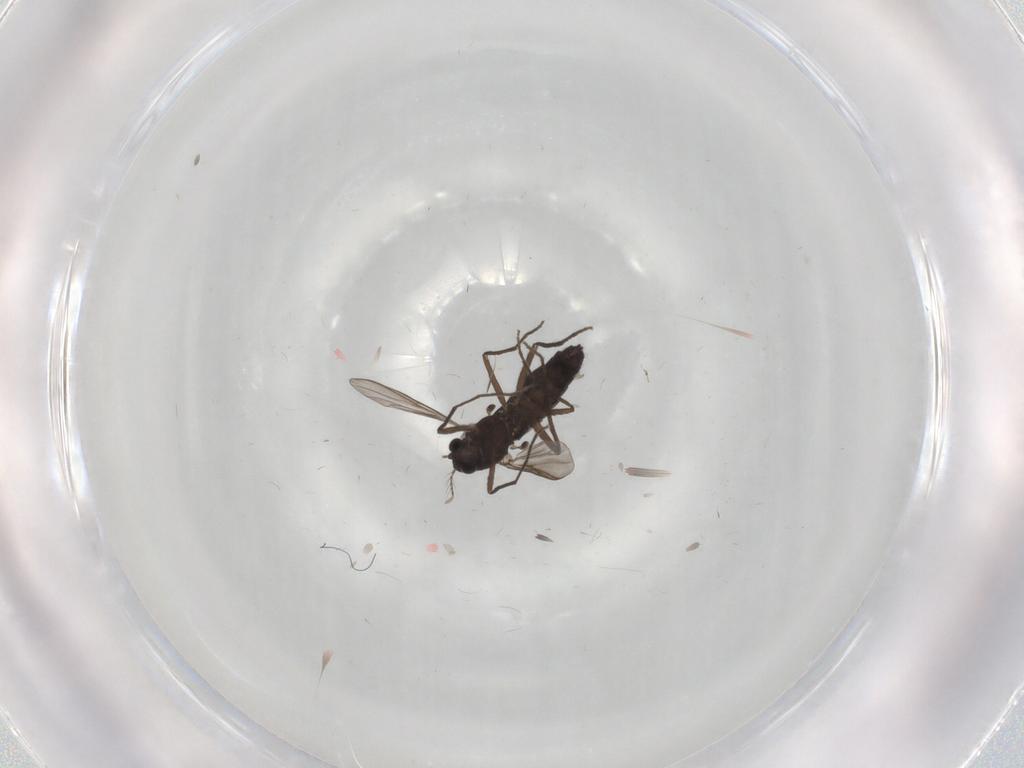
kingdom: Animalia
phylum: Arthropoda
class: Insecta
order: Diptera
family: Chironomidae
